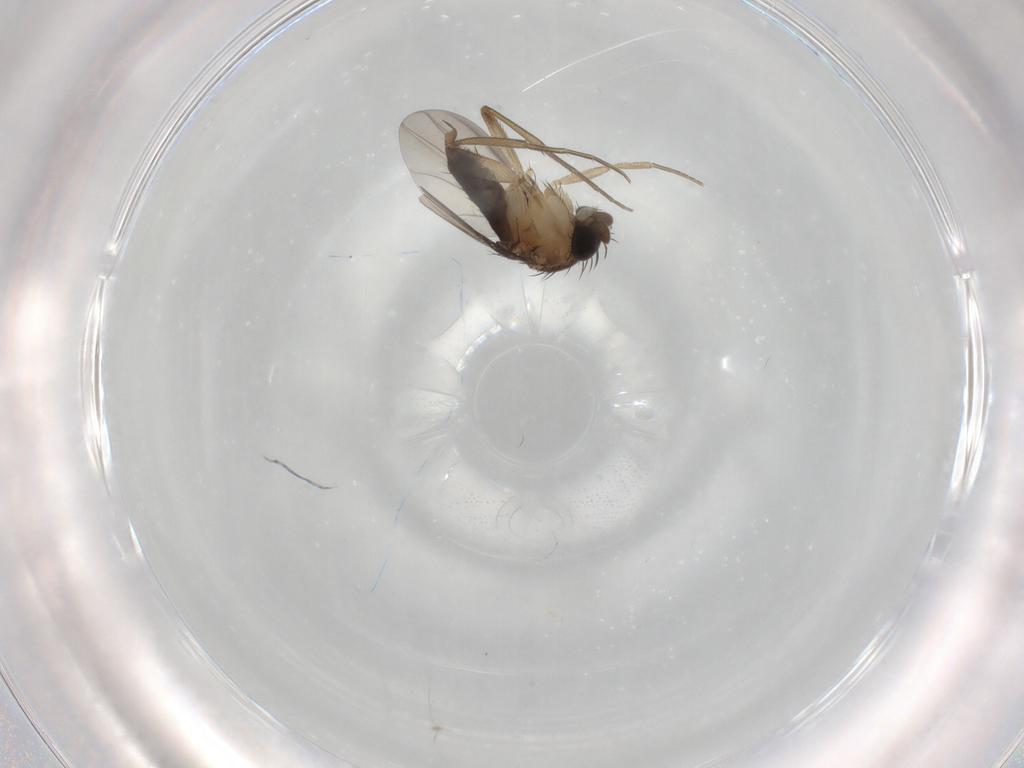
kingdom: Animalia
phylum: Arthropoda
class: Insecta
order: Diptera
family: Phoridae
